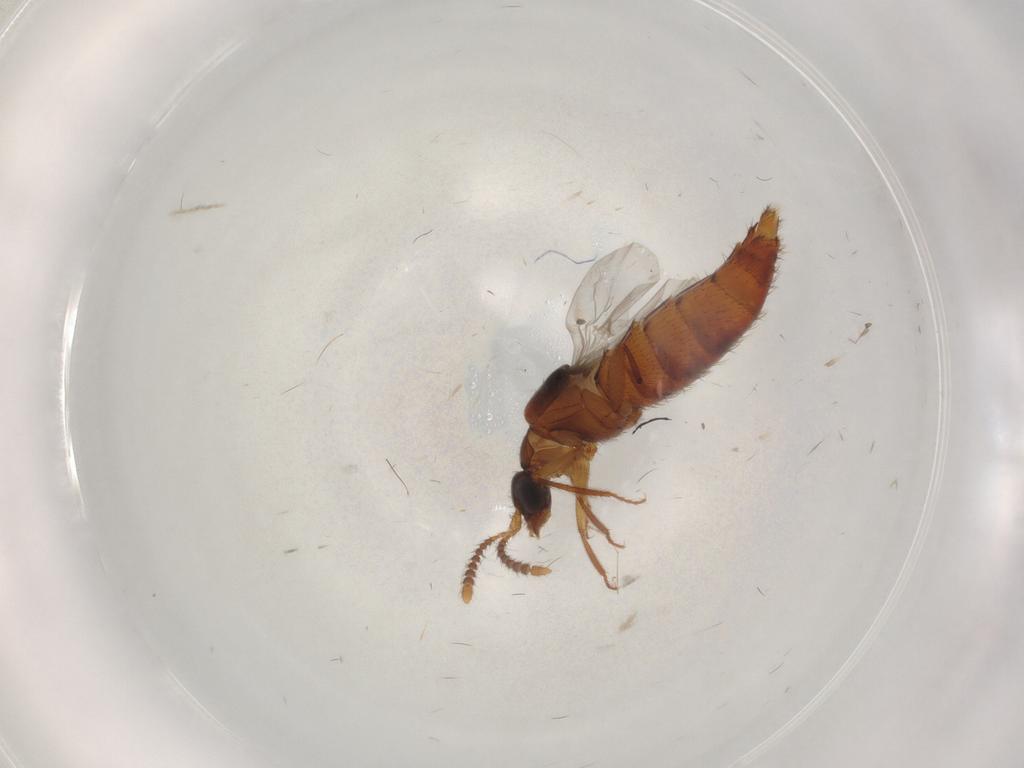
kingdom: Animalia
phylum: Arthropoda
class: Insecta
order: Coleoptera
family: Staphylinidae
